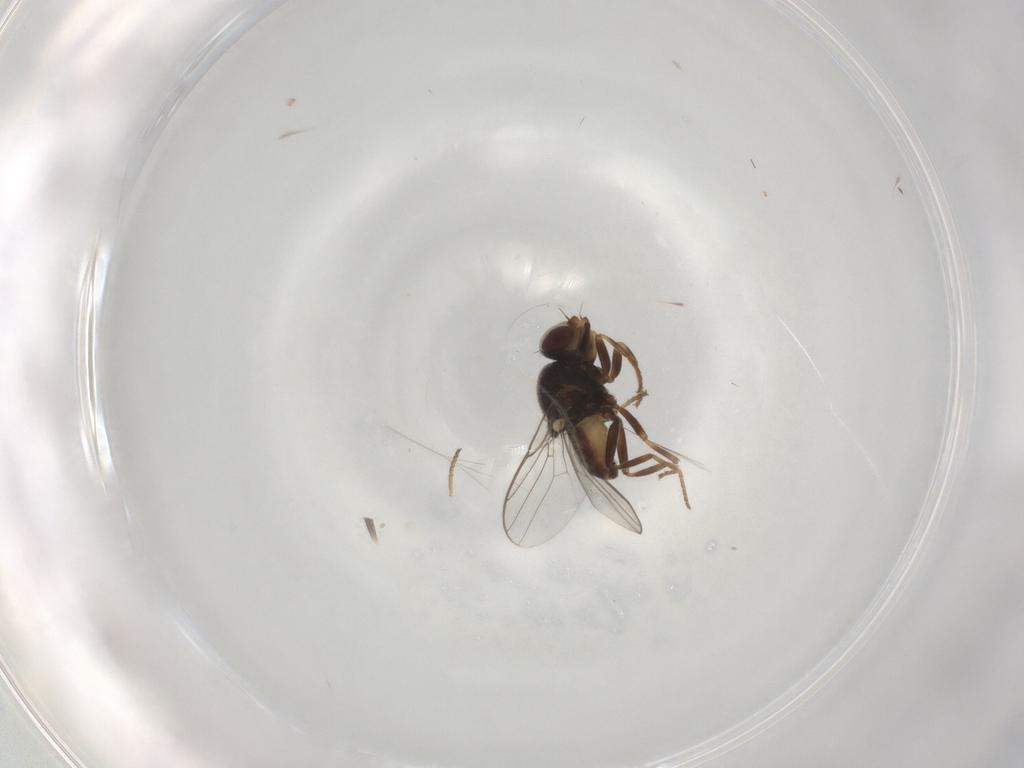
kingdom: Animalia
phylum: Arthropoda
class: Insecta
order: Diptera
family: Chloropidae
